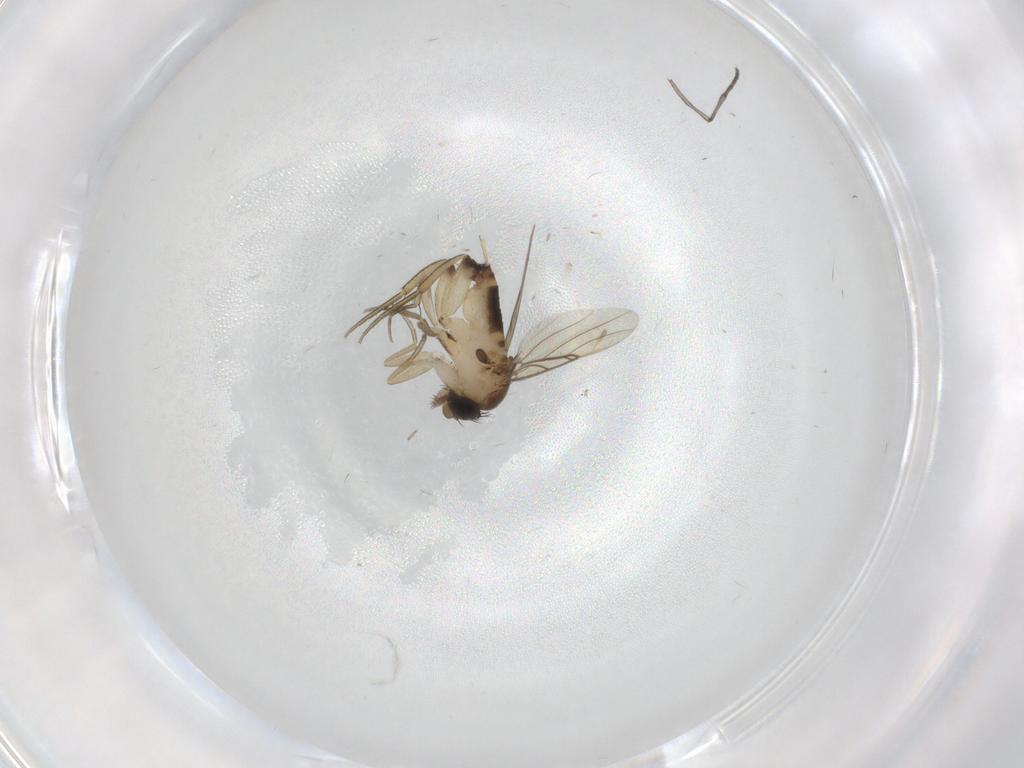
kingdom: Animalia
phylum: Arthropoda
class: Insecta
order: Diptera
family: Sciaridae
